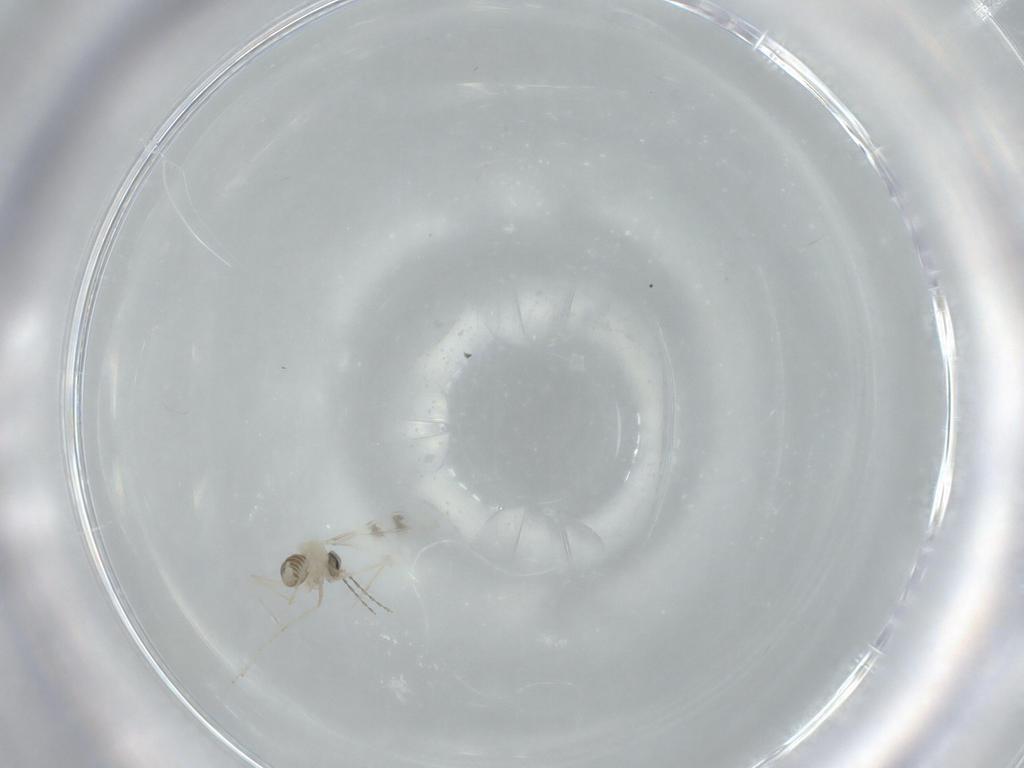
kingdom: Animalia
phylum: Arthropoda
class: Insecta
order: Diptera
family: Cecidomyiidae
